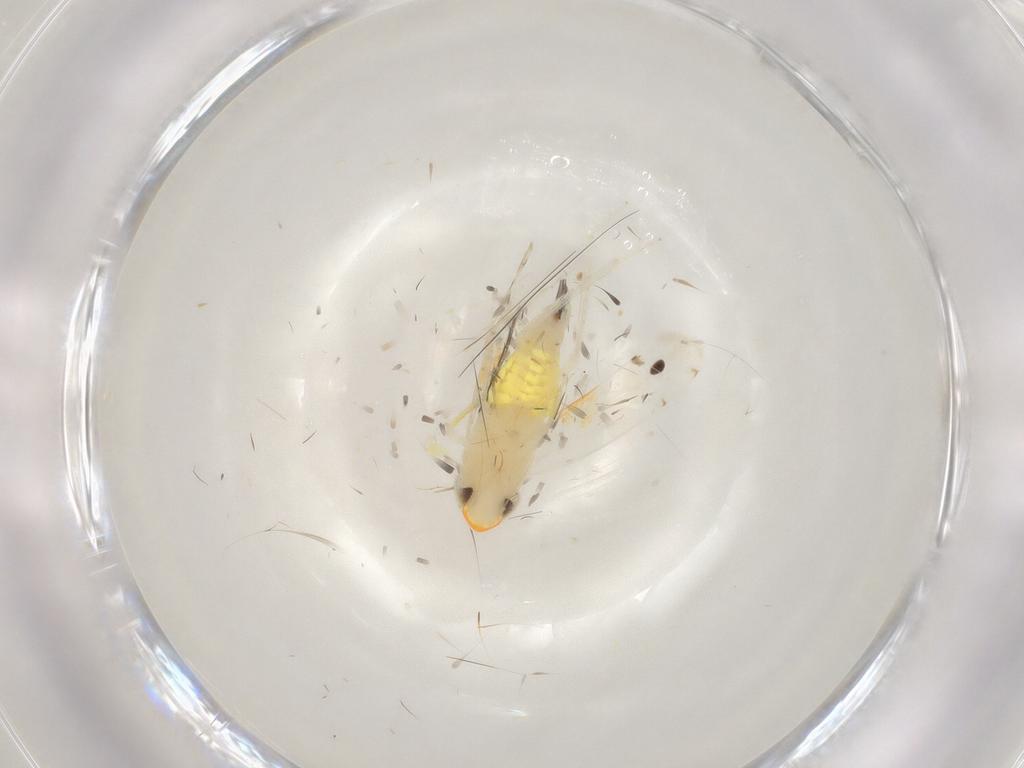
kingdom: Animalia
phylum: Arthropoda
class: Insecta
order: Hemiptera
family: Cicadellidae
